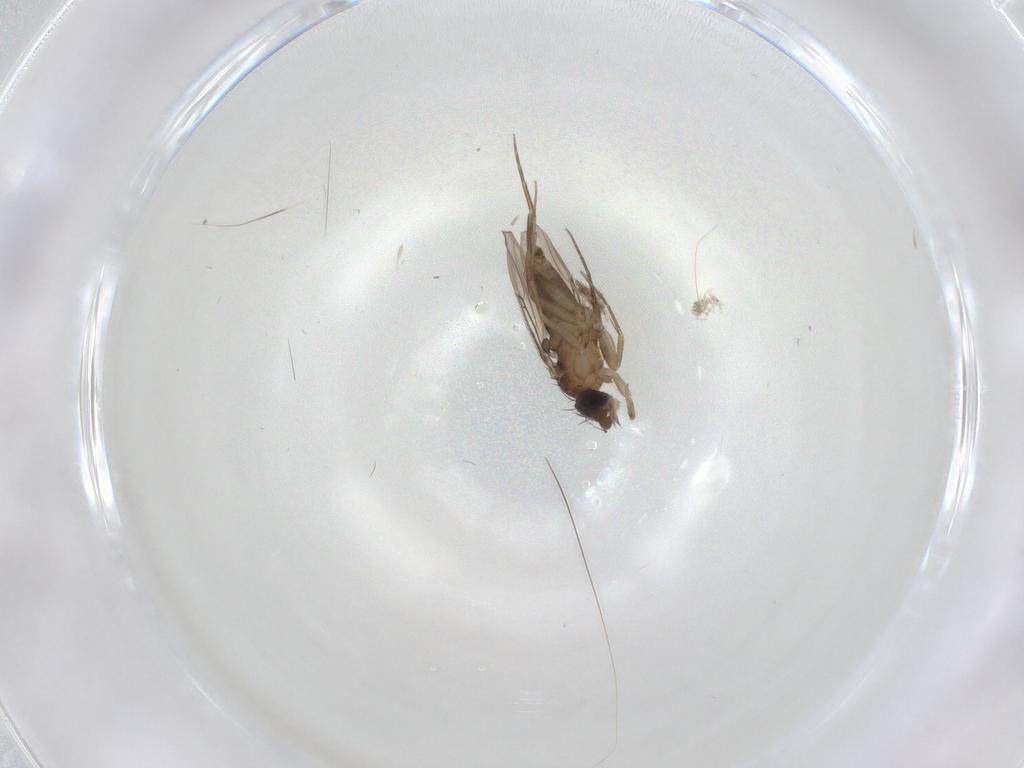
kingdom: Animalia
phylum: Arthropoda
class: Insecta
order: Diptera
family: Phoridae
